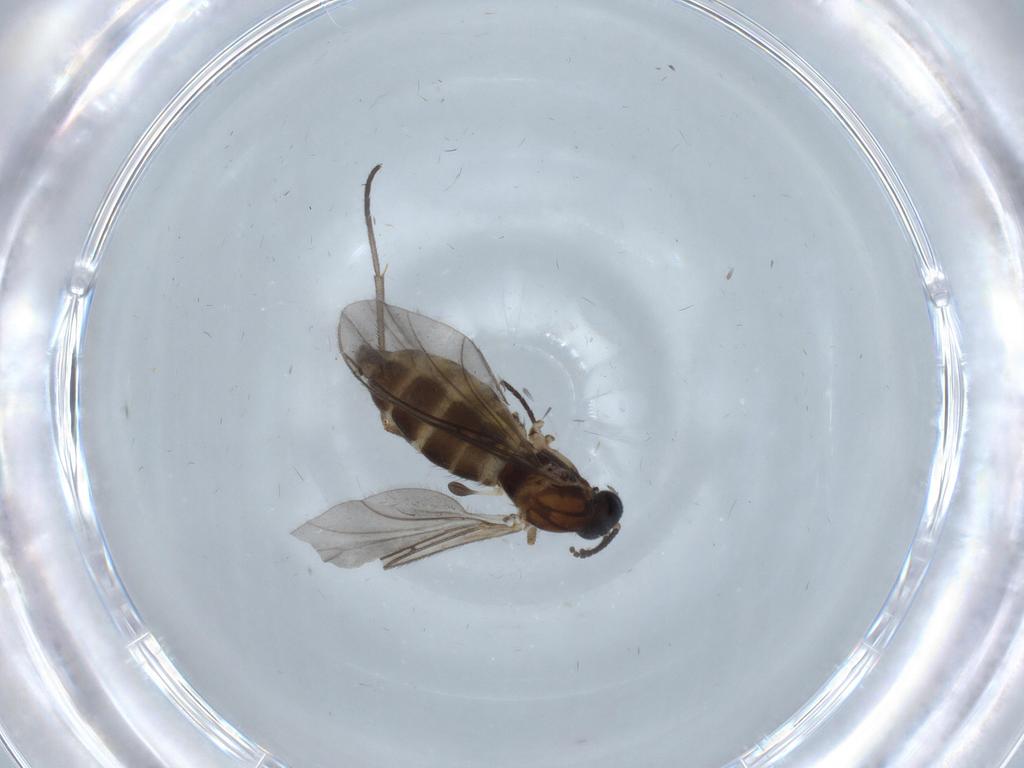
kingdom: Animalia
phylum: Arthropoda
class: Insecta
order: Diptera
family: Sciaridae
